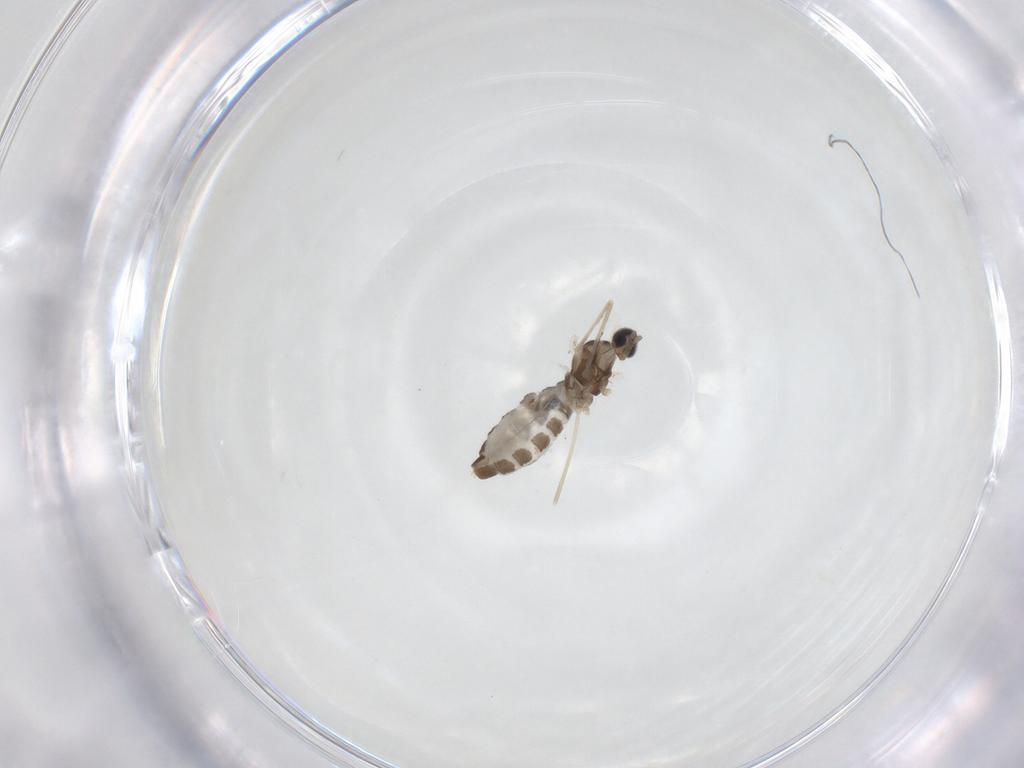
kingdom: Animalia
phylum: Arthropoda
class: Insecta
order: Diptera
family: Cecidomyiidae
